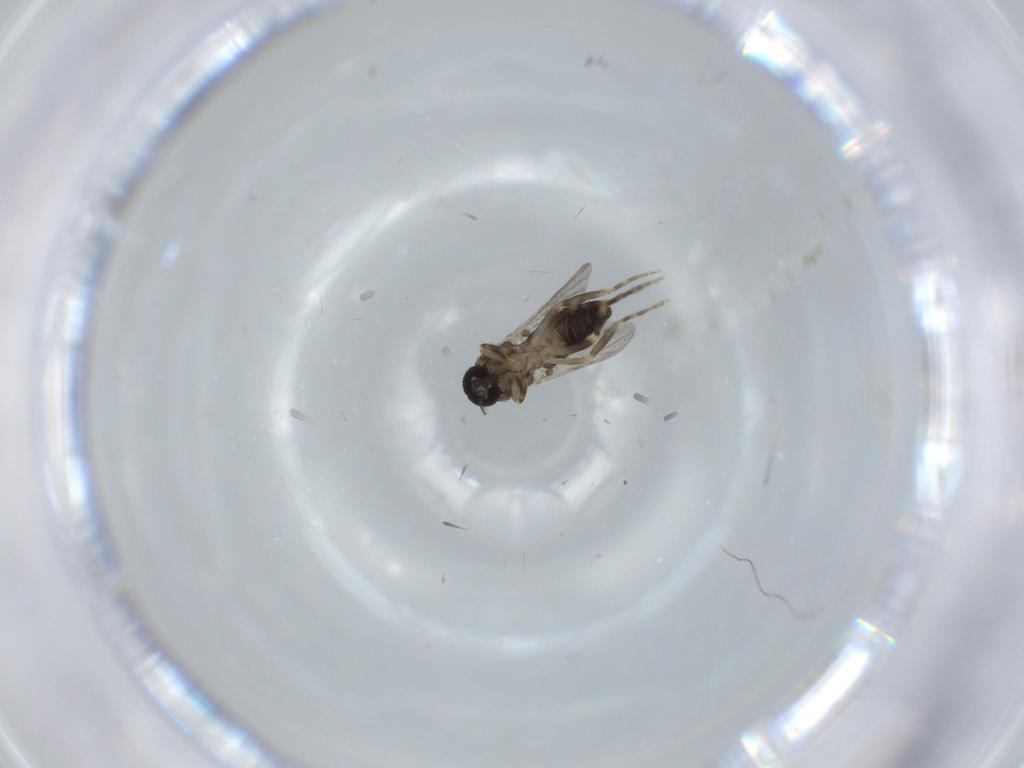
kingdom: Animalia
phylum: Arthropoda
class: Insecta
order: Diptera
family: Ceratopogonidae
